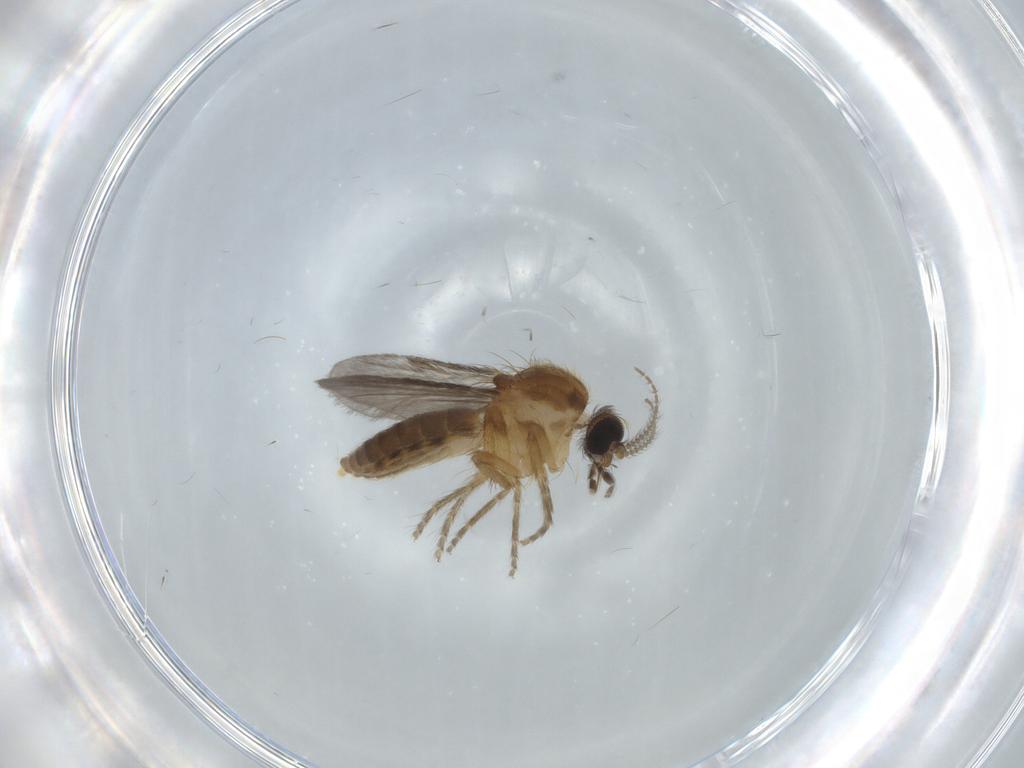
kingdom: Animalia
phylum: Arthropoda
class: Insecta
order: Diptera
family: Ceratopogonidae
